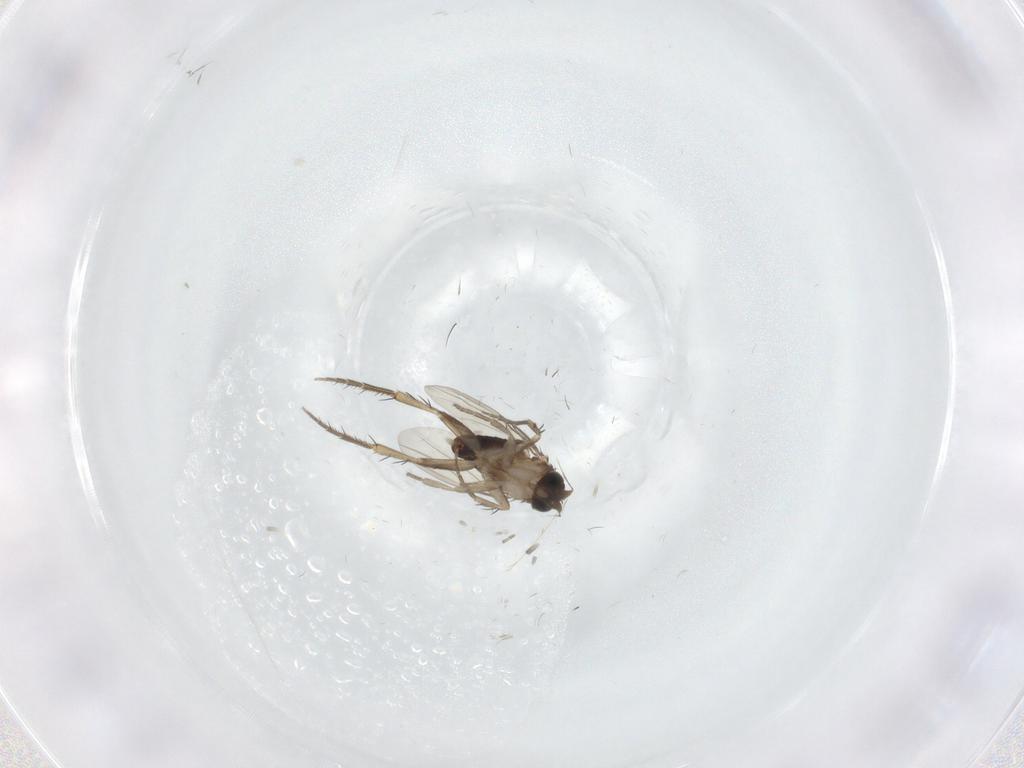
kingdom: Animalia
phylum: Arthropoda
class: Insecta
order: Diptera
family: Phoridae
